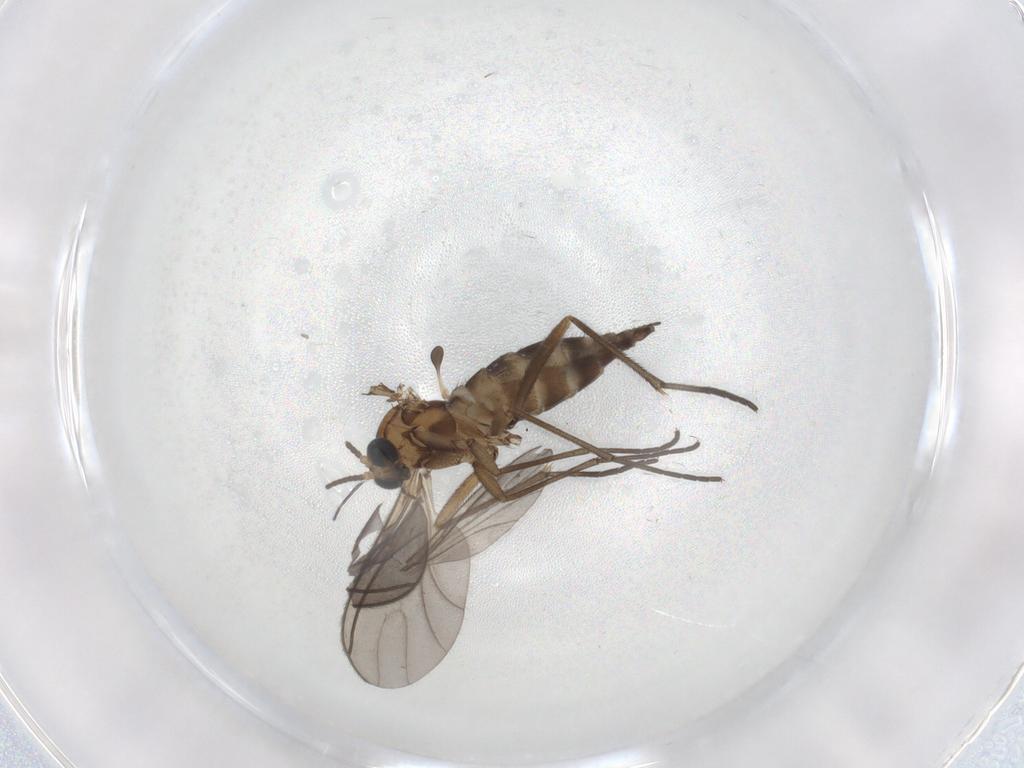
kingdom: Animalia
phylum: Arthropoda
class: Insecta
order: Diptera
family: Sciaridae
